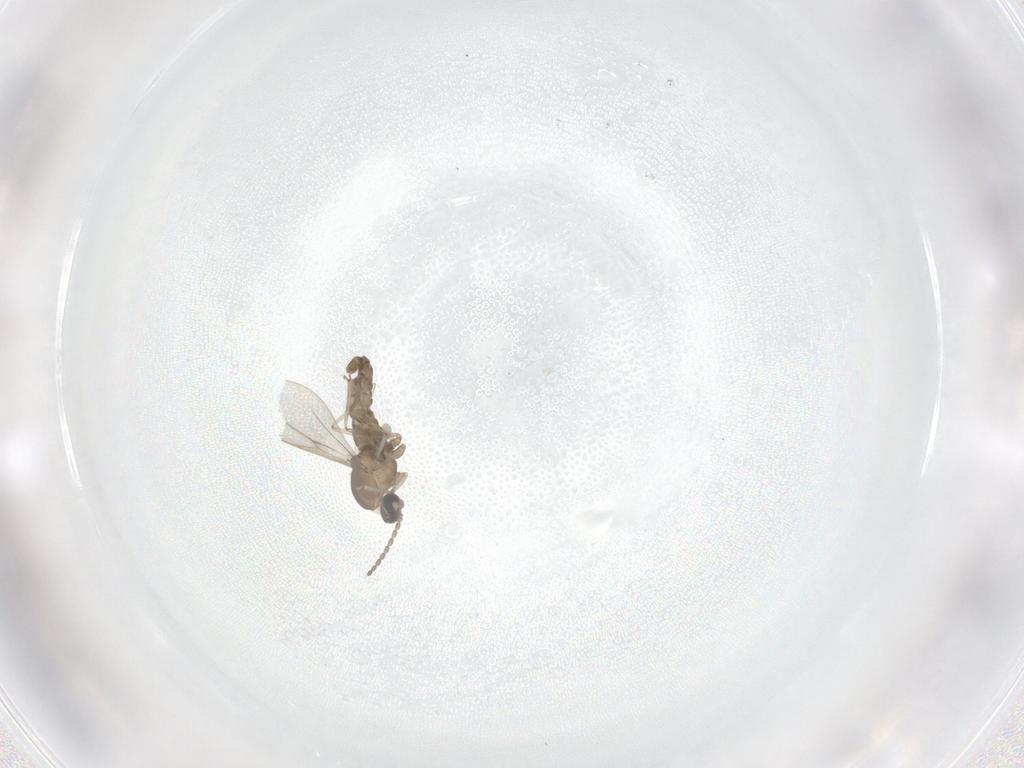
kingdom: Animalia
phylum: Arthropoda
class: Insecta
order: Diptera
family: Cecidomyiidae
